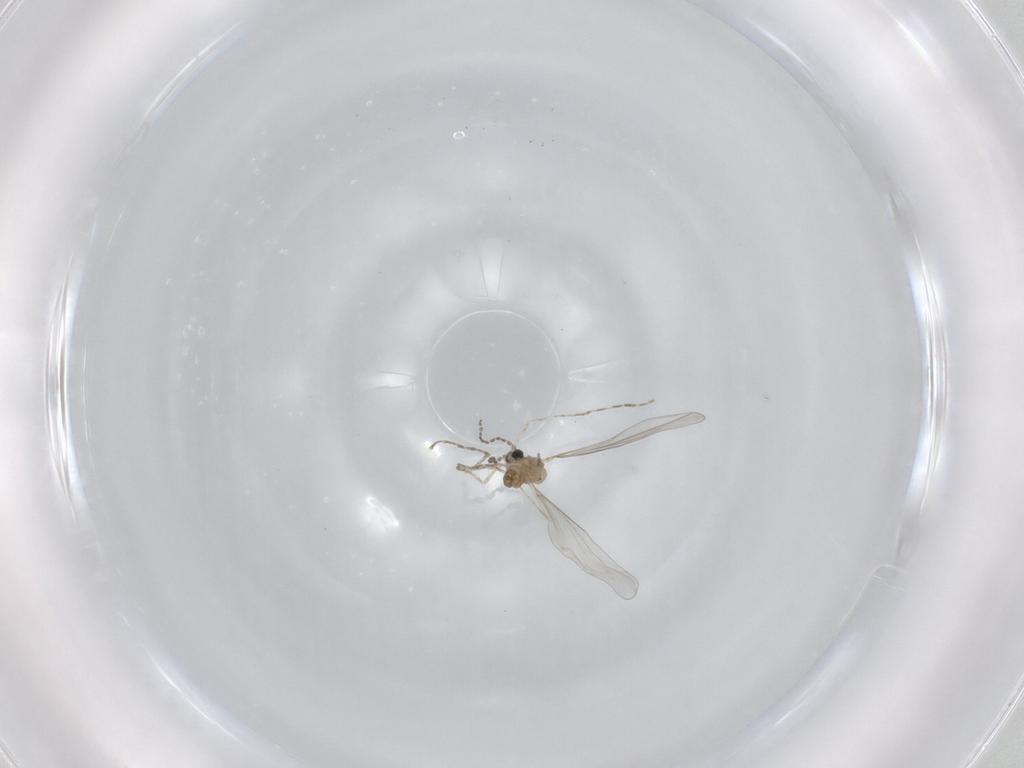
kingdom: Animalia
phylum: Arthropoda
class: Insecta
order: Diptera
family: Cecidomyiidae
